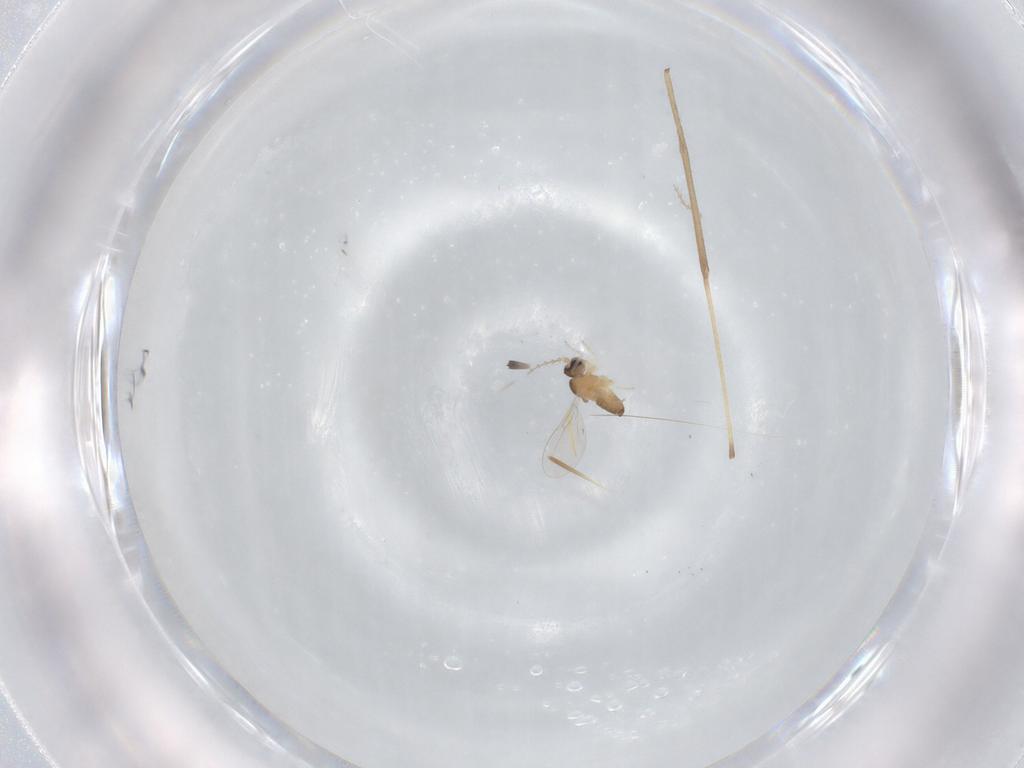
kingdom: Animalia
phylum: Arthropoda
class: Insecta
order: Diptera
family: Limoniidae
